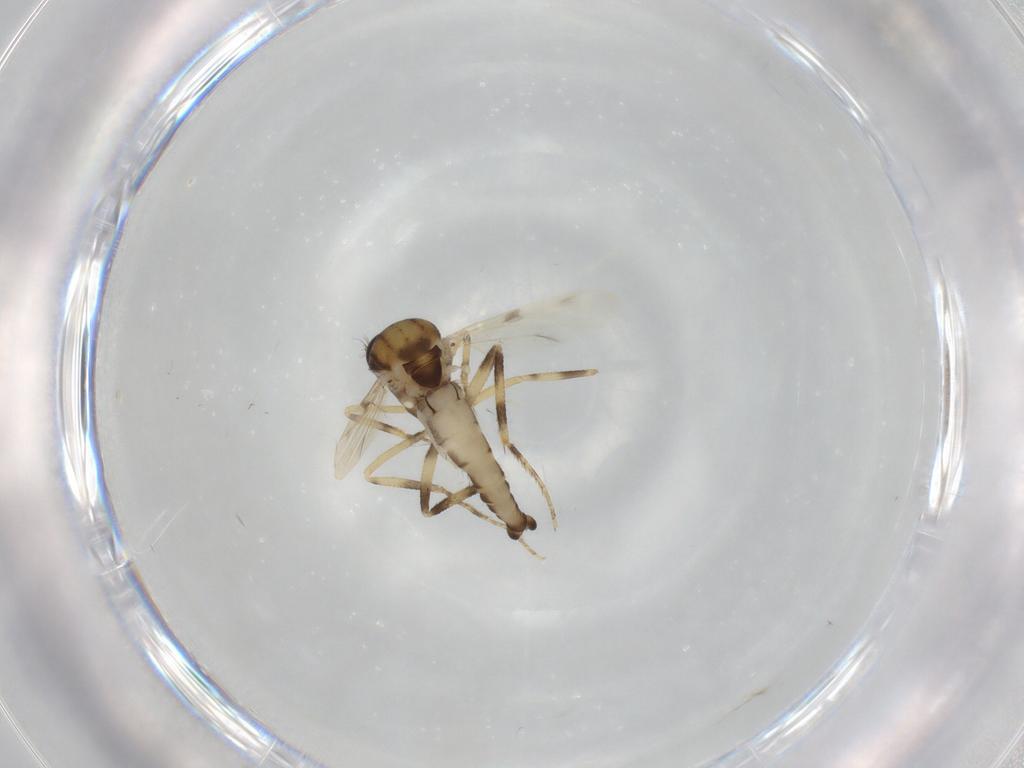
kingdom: Animalia
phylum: Arthropoda
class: Insecta
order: Diptera
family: Ceratopogonidae
